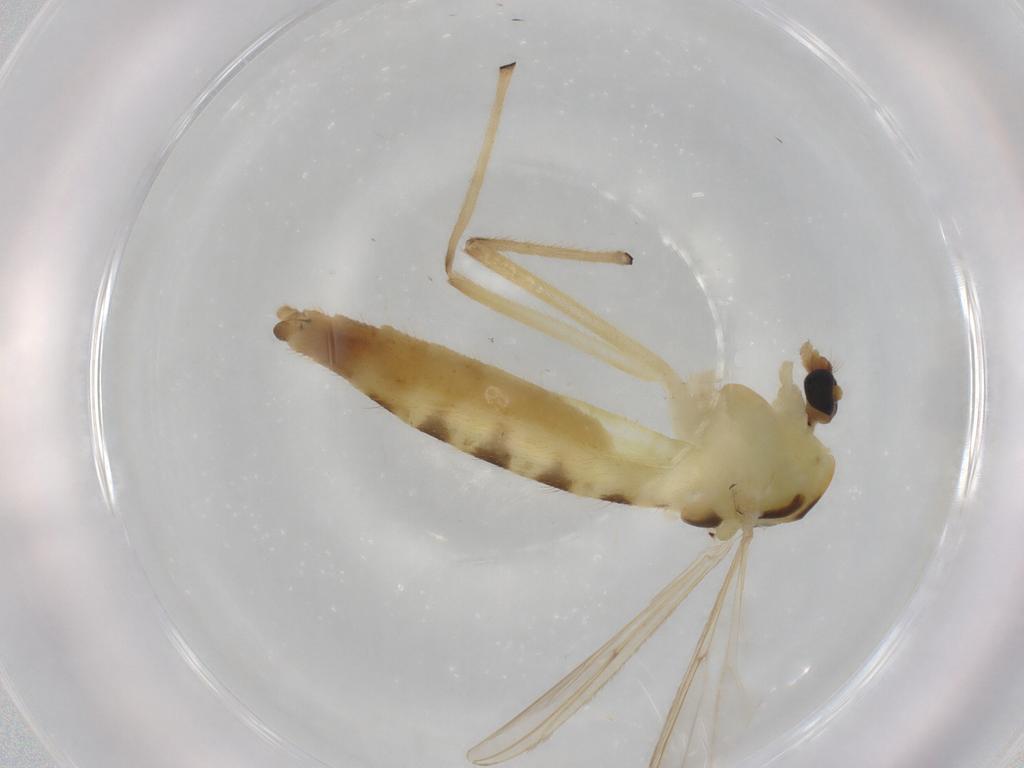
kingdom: Animalia
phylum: Arthropoda
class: Insecta
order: Diptera
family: Chironomidae
